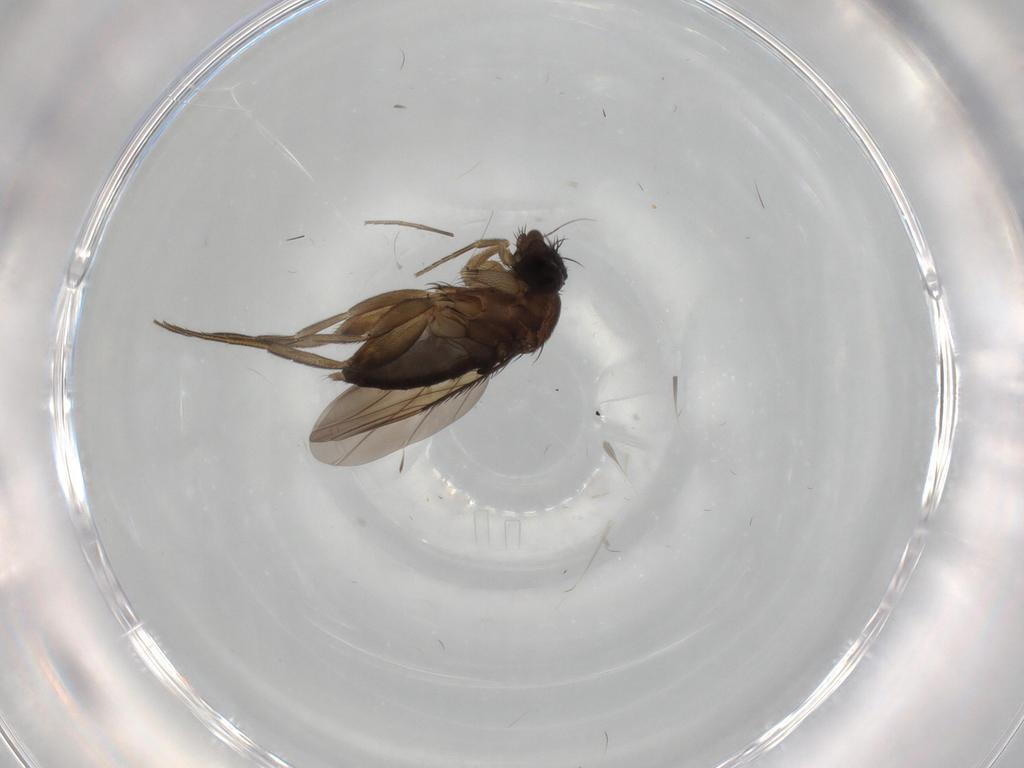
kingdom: Animalia
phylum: Arthropoda
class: Insecta
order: Diptera
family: Phoridae
